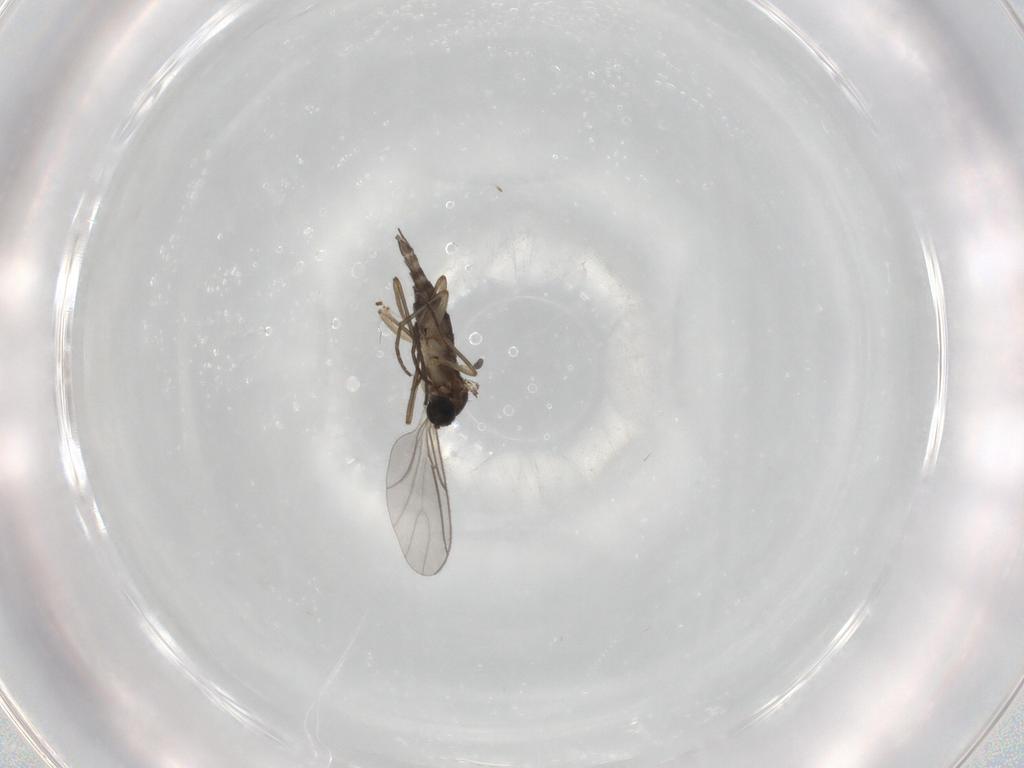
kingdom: Animalia
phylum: Arthropoda
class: Insecta
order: Diptera
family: Sciaridae
